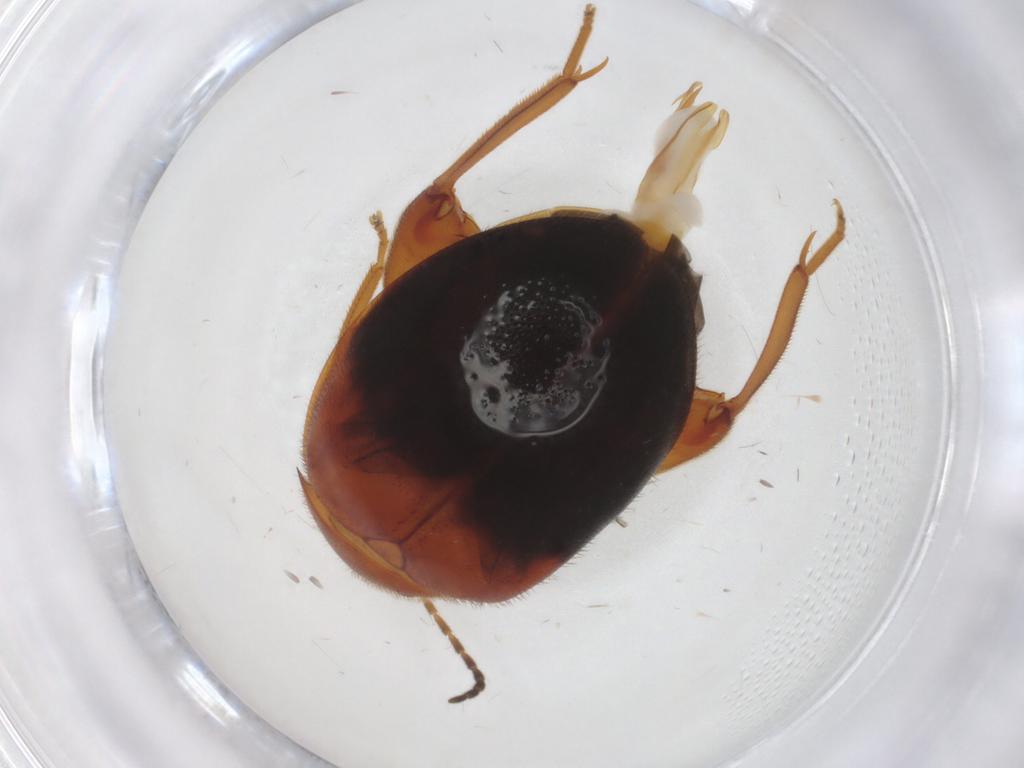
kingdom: Animalia
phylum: Arthropoda
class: Insecta
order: Coleoptera
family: Scirtidae
